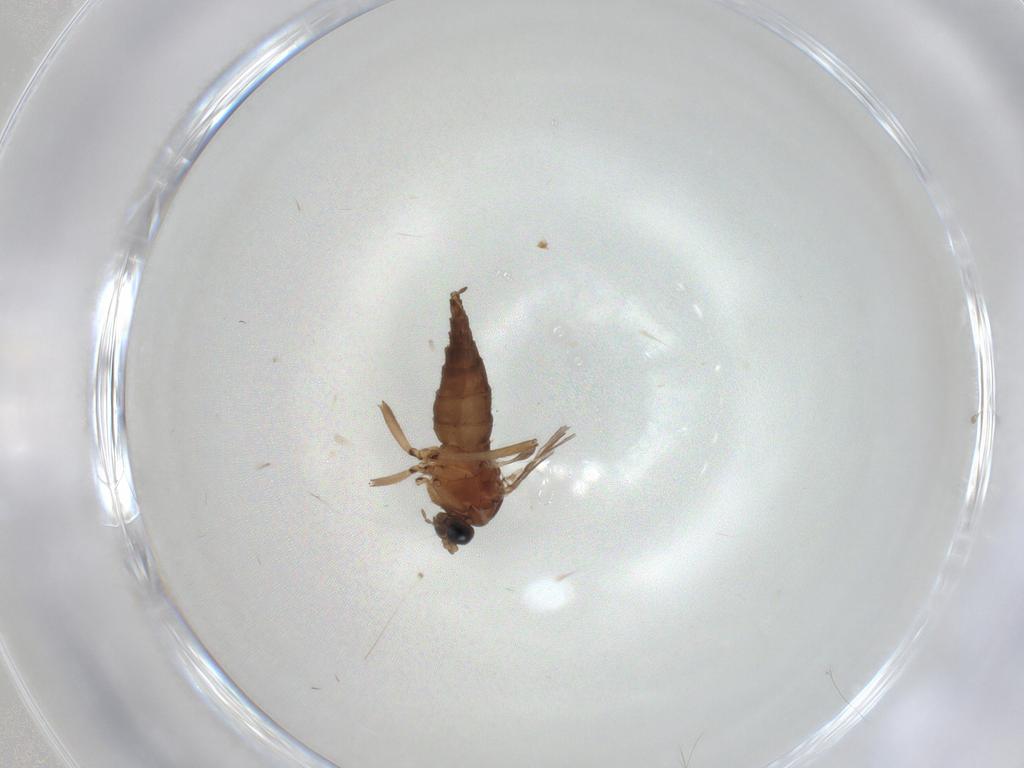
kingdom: Animalia
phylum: Arthropoda
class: Insecta
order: Diptera
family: Sciaridae
